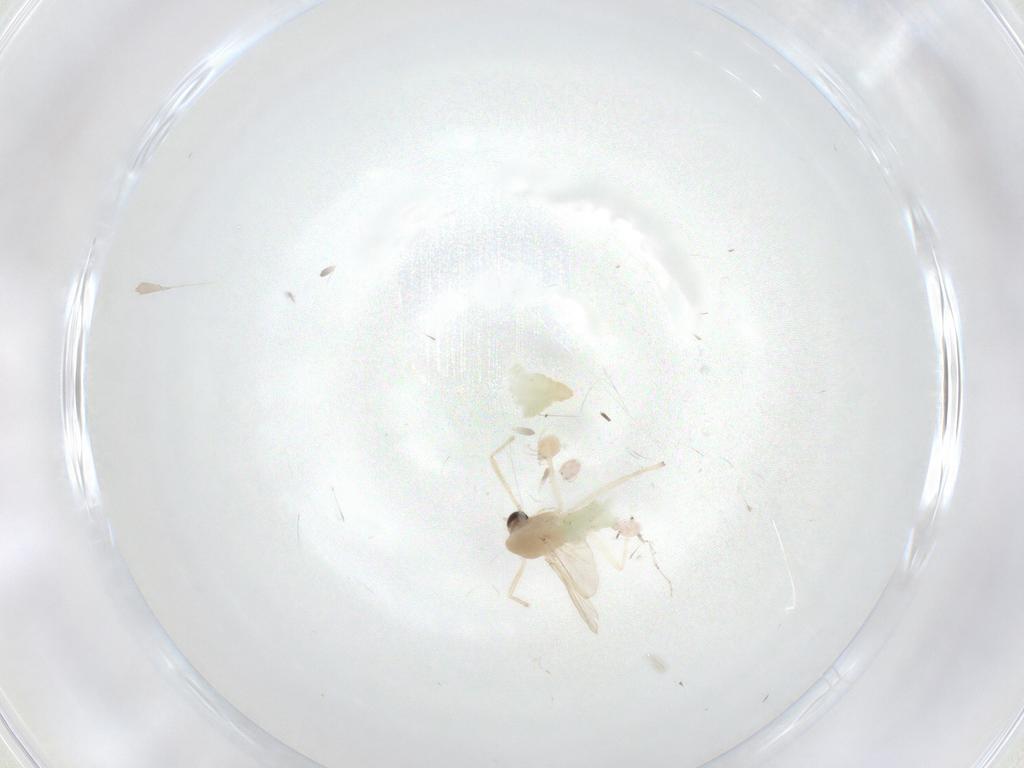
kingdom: Animalia
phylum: Arthropoda
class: Insecta
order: Diptera
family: Chironomidae
